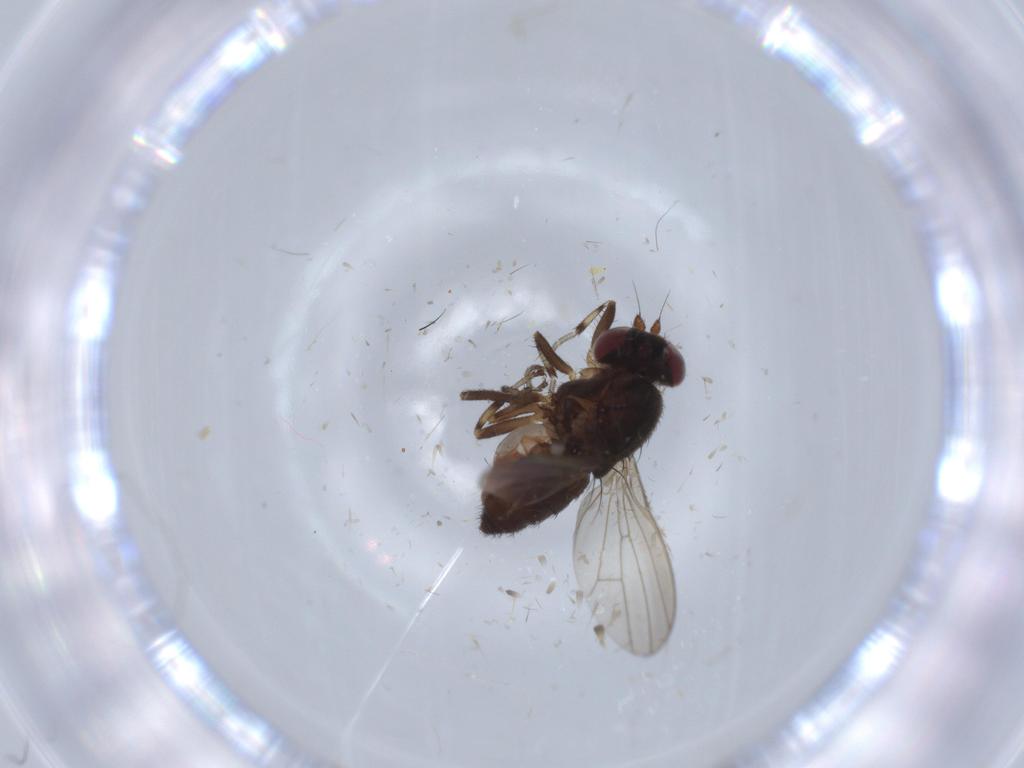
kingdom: Animalia
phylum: Arthropoda
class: Insecta
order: Diptera
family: Heleomyzidae
